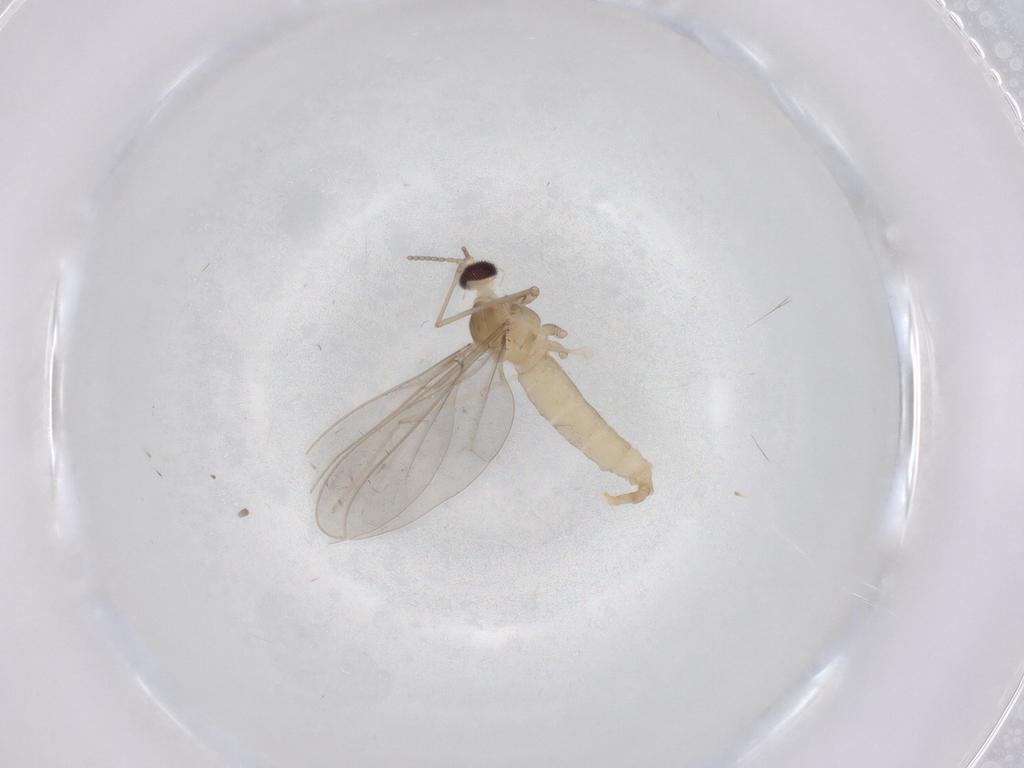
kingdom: Animalia
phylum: Arthropoda
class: Insecta
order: Diptera
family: Cecidomyiidae
